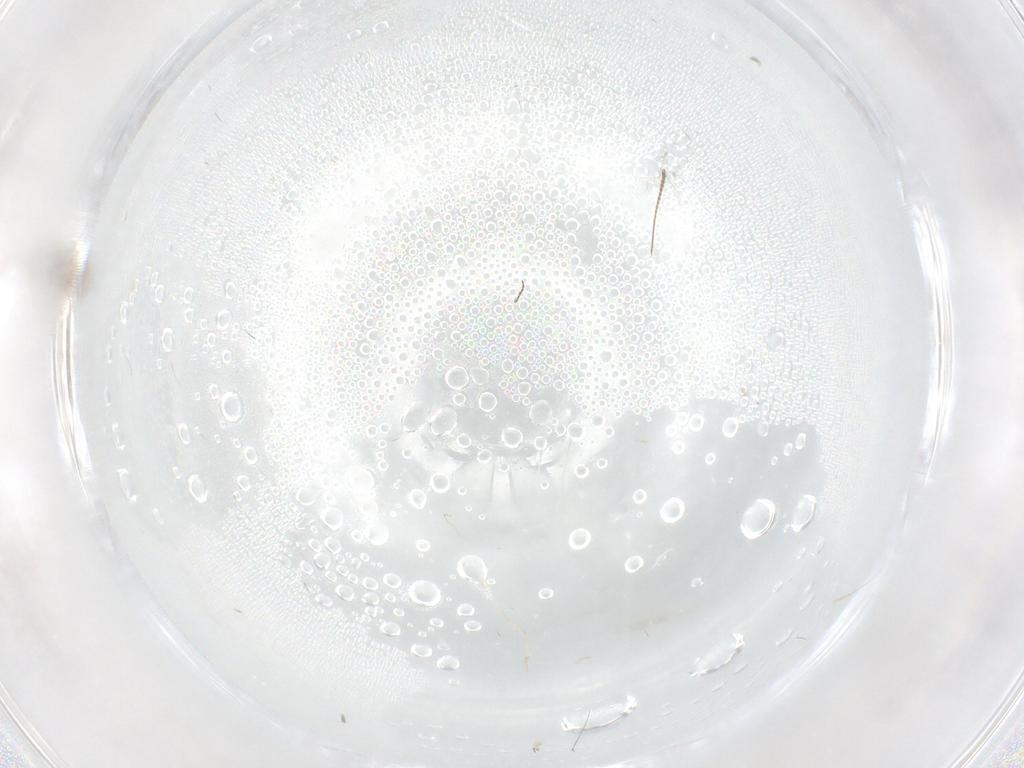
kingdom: Animalia
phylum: Arthropoda
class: Insecta
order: Diptera
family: Cecidomyiidae
